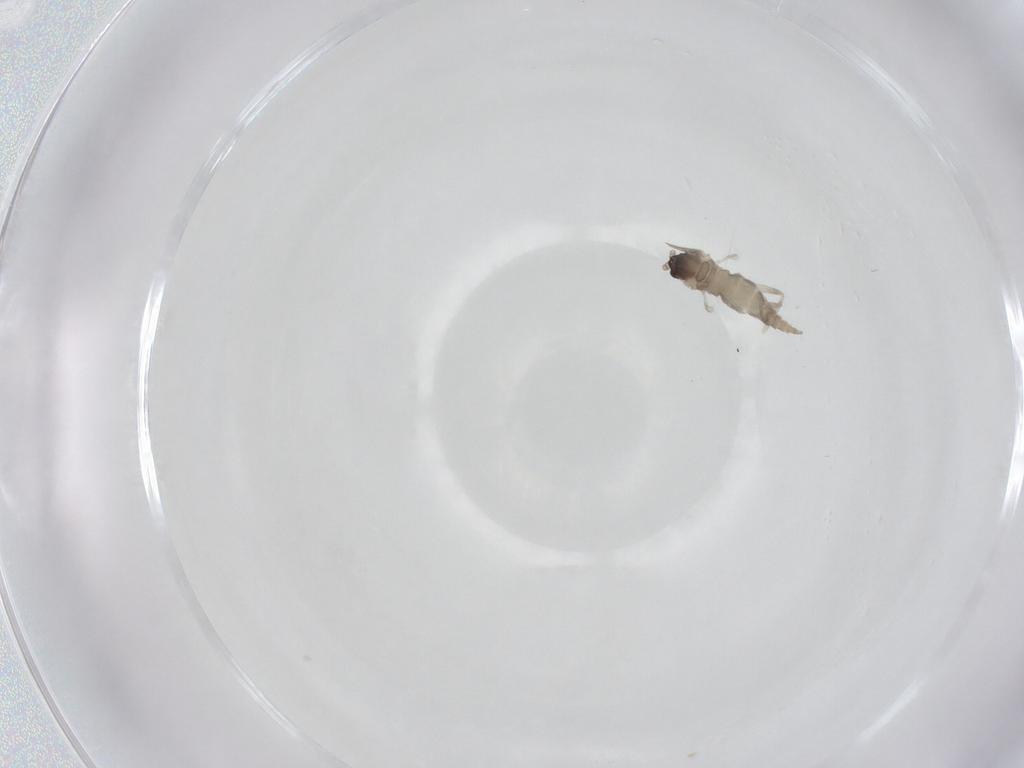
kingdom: Animalia
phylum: Arthropoda
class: Insecta
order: Diptera
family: Cecidomyiidae
